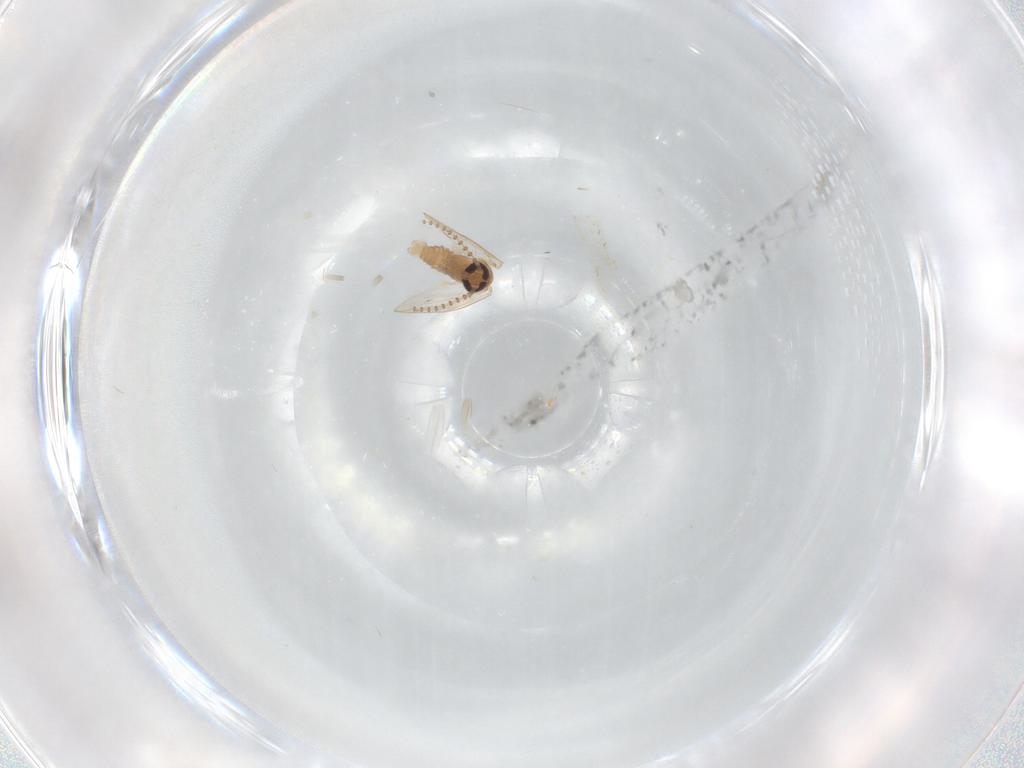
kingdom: Animalia
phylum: Arthropoda
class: Insecta
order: Diptera
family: Psychodidae
